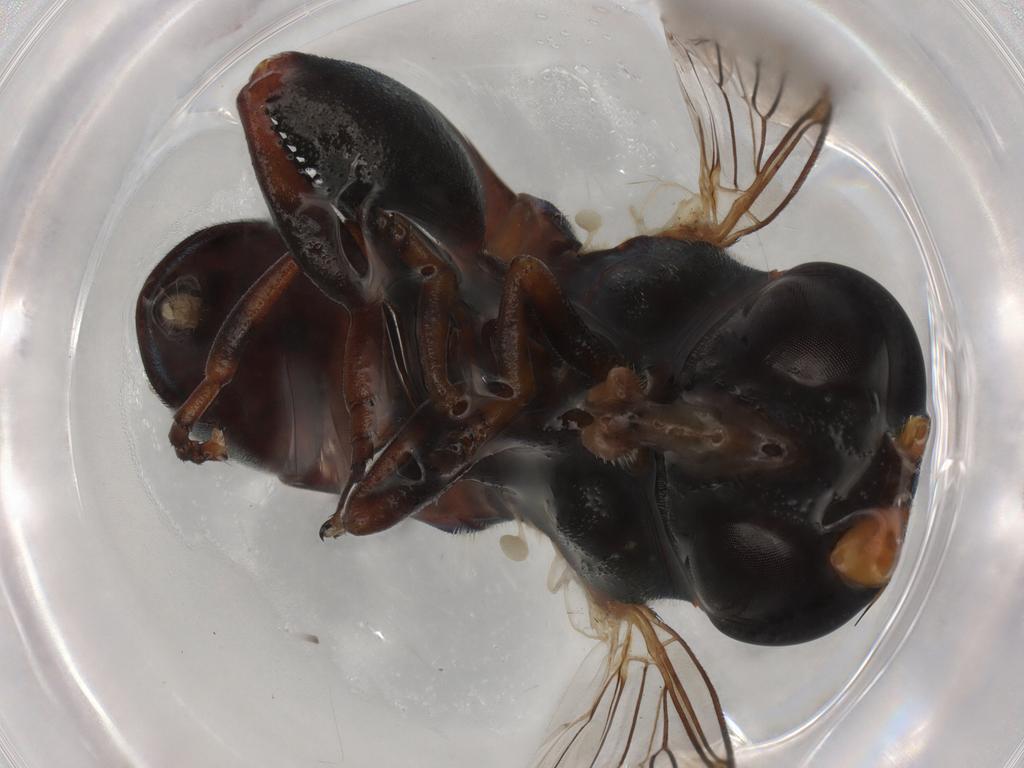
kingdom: Animalia
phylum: Arthropoda
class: Insecta
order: Diptera
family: Syrphidae
